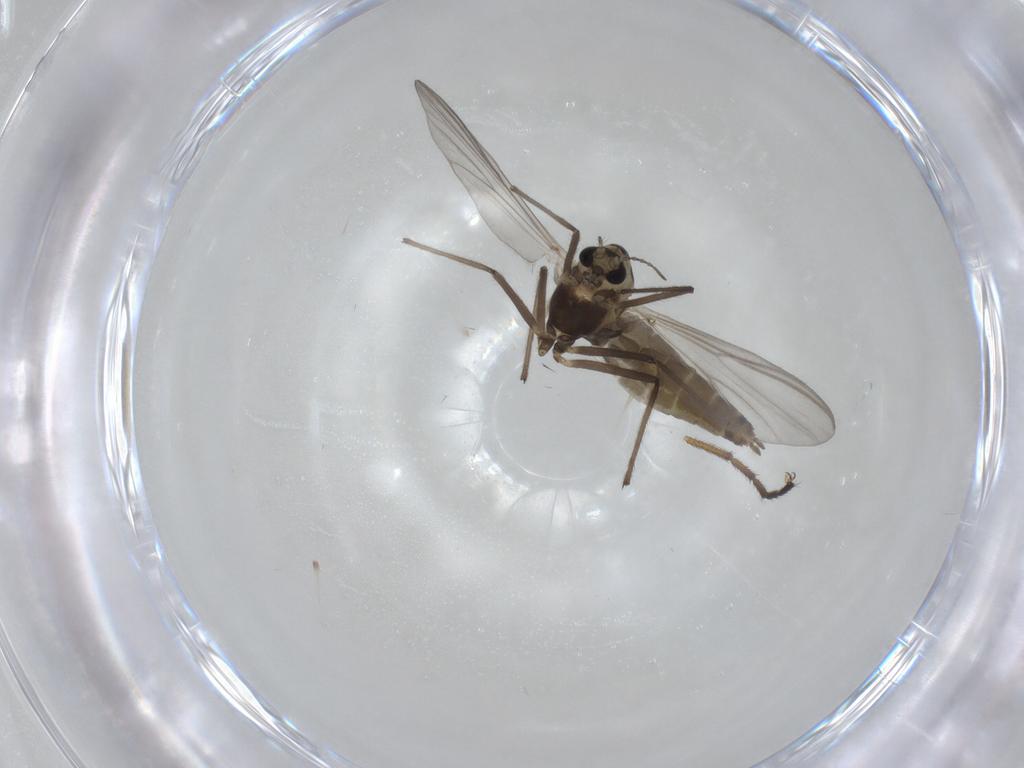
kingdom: Animalia
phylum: Arthropoda
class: Insecta
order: Diptera
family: Chironomidae
